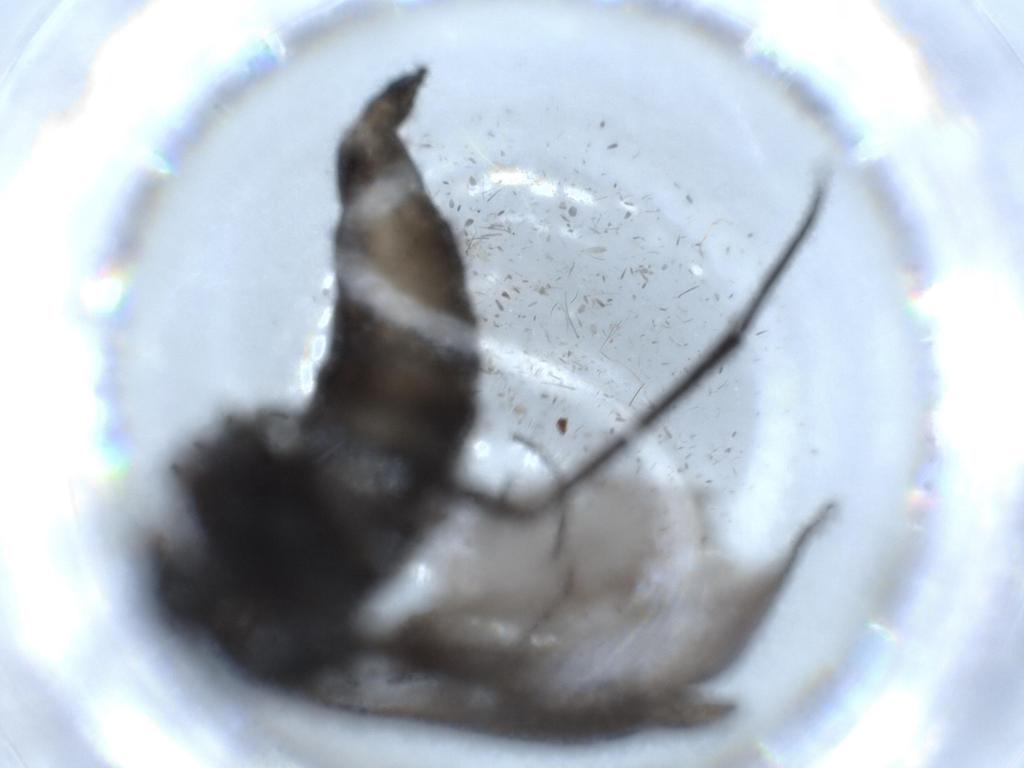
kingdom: Animalia
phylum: Arthropoda
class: Insecta
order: Diptera
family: Sciaridae
